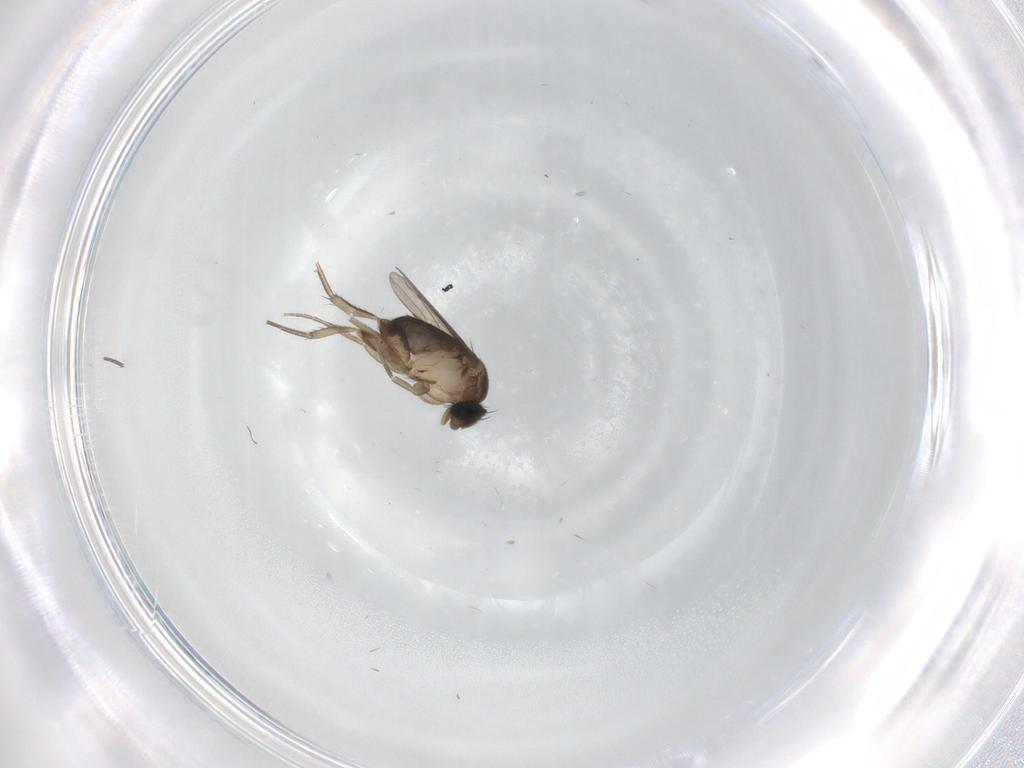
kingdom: Animalia
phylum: Arthropoda
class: Insecta
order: Diptera
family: Phoridae
